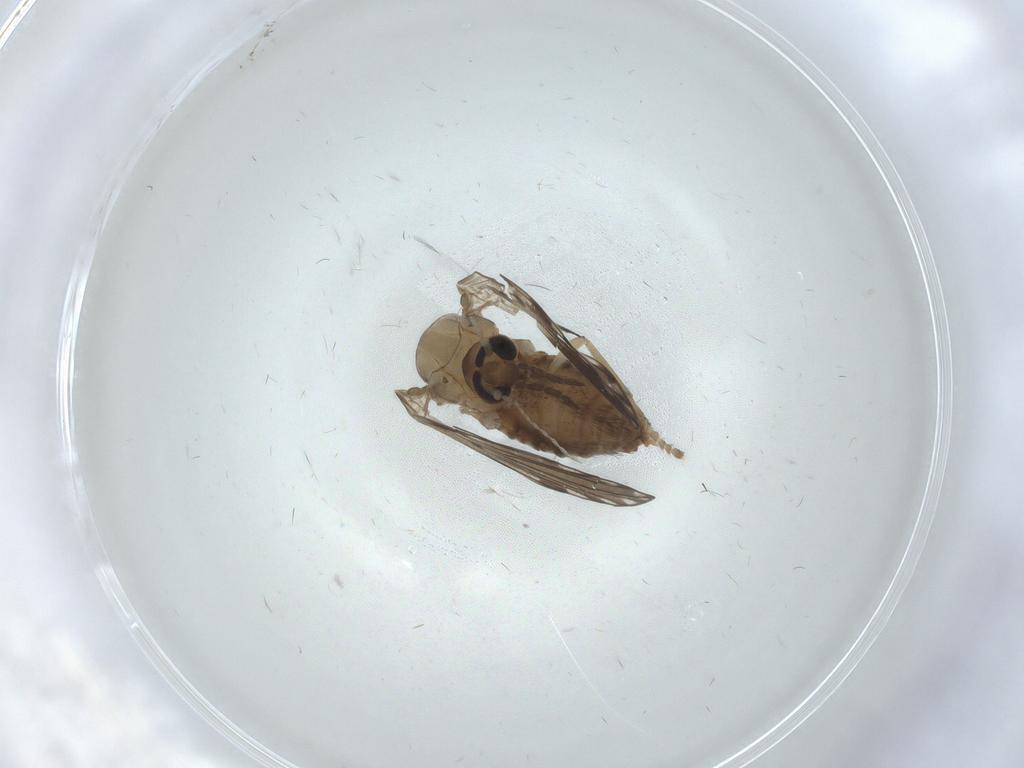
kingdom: Animalia
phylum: Arthropoda
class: Insecta
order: Diptera
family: Psychodidae
